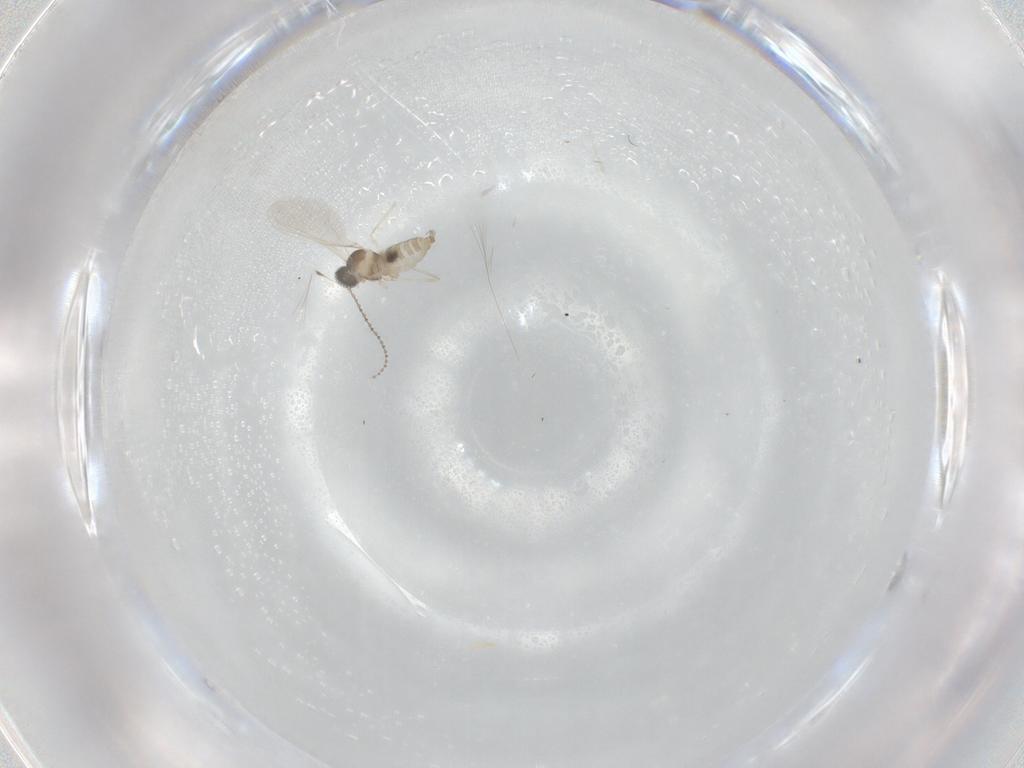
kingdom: Animalia
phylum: Arthropoda
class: Insecta
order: Diptera
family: Cecidomyiidae
